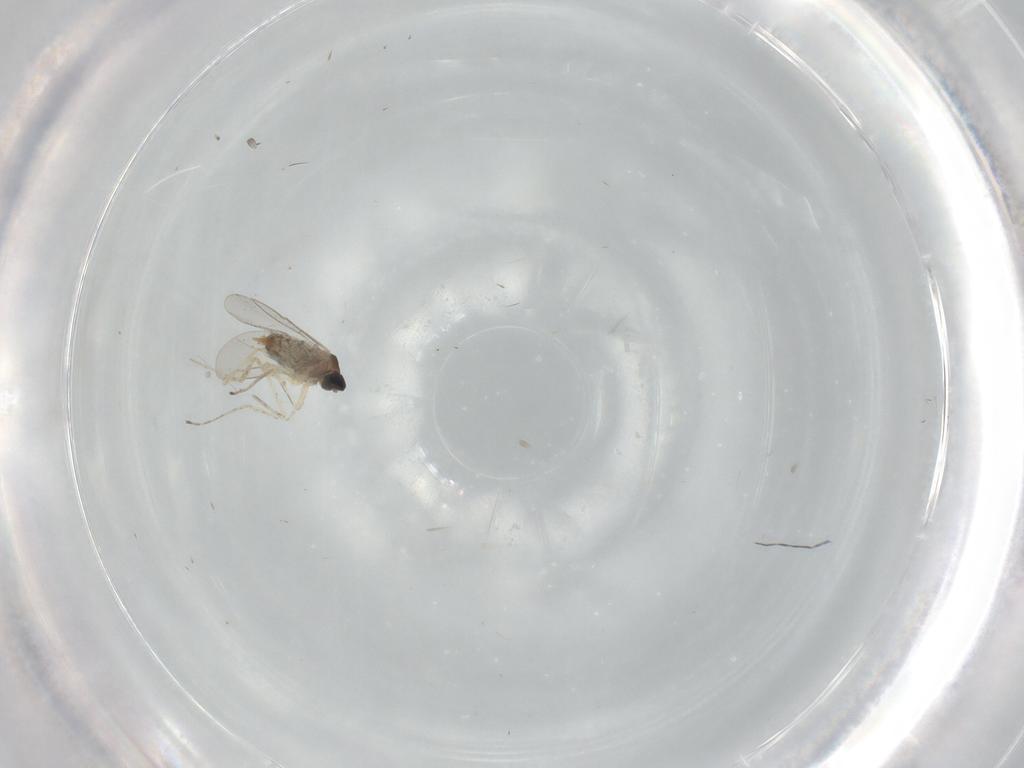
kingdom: Animalia
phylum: Arthropoda
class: Insecta
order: Diptera
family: Cecidomyiidae
